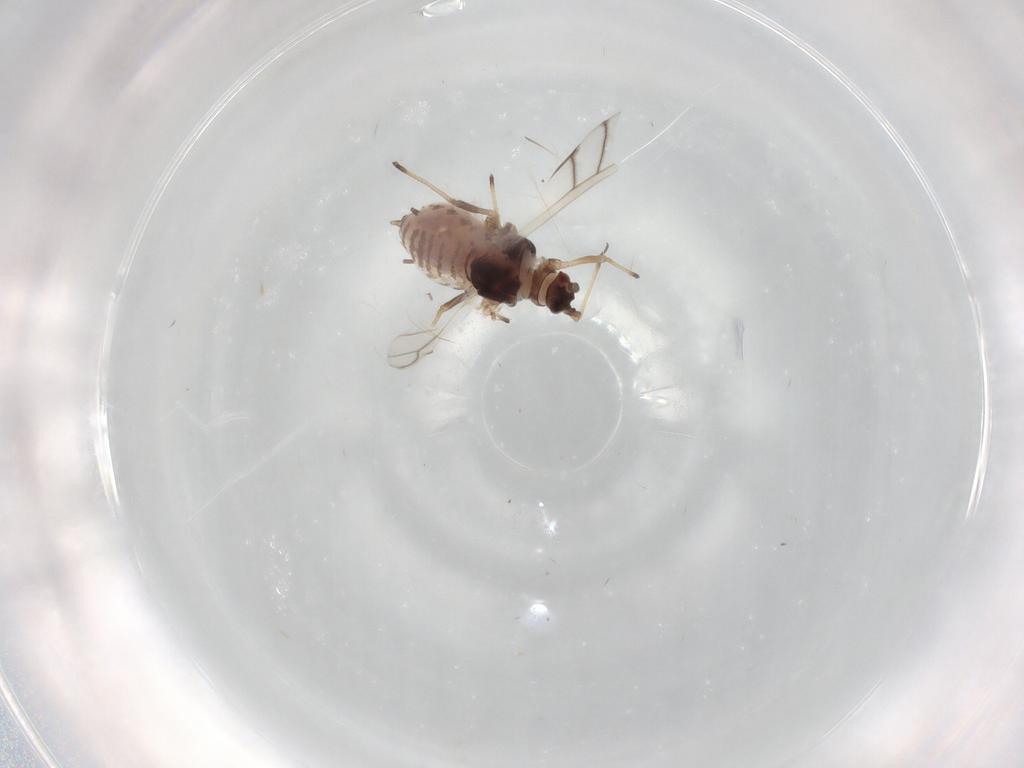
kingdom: Animalia
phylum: Arthropoda
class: Insecta
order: Hemiptera
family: Aphididae
